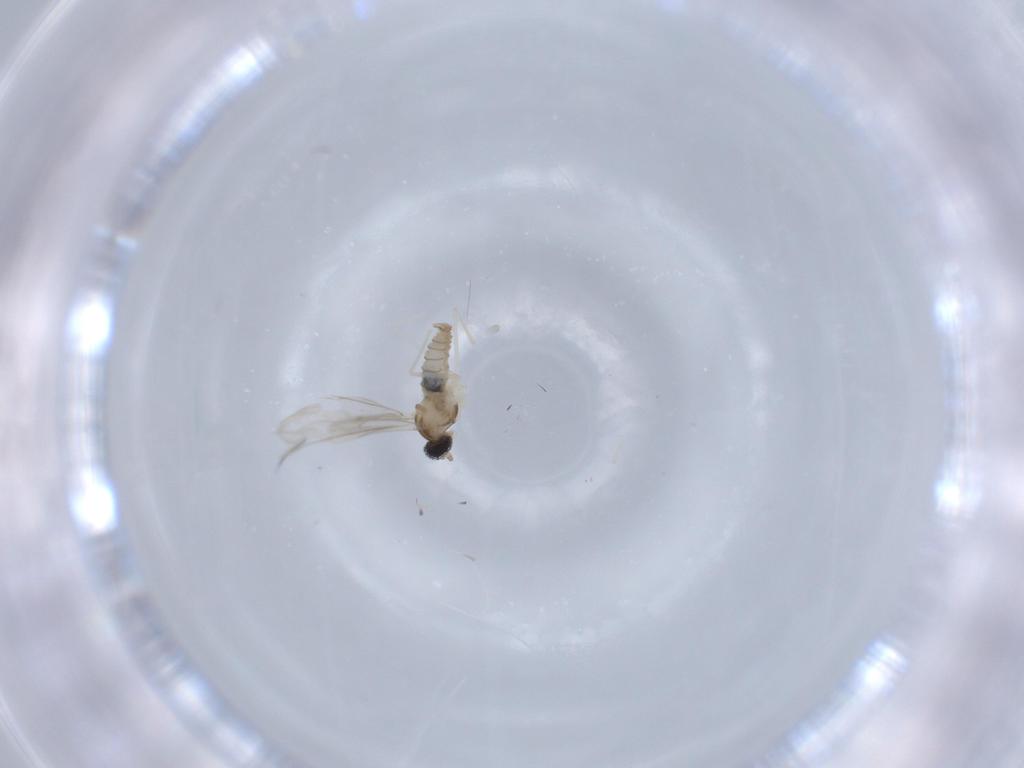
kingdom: Animalia
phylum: Arthropoda
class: Insecta
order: Diptera
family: Cecidomyiidae
